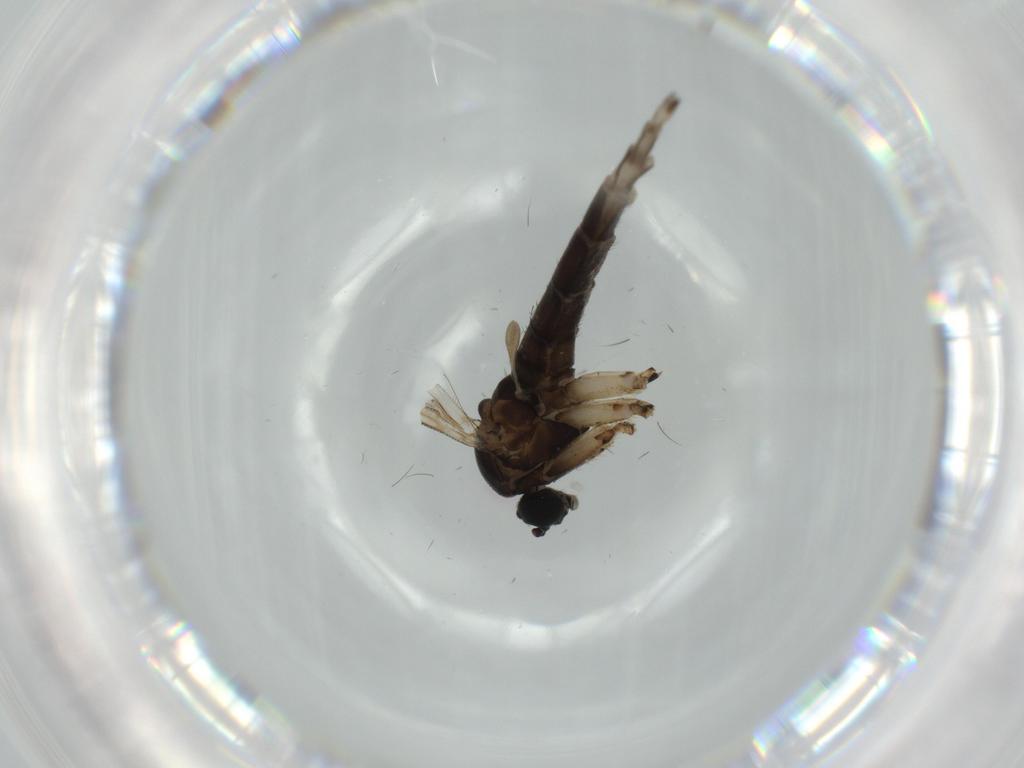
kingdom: Animalia
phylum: Arthropoda
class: Insecta
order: Diptera
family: Sciaridae
